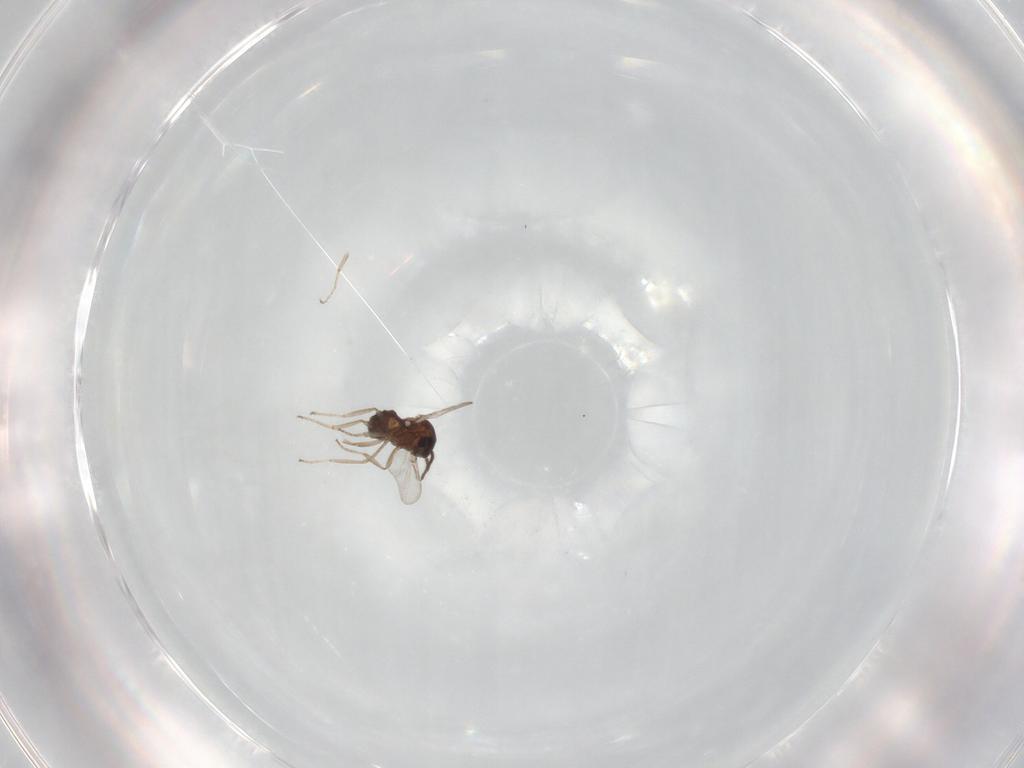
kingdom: Animalia
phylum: Arthropoda
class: Insecta
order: Diptera
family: Ceratopogonidae
